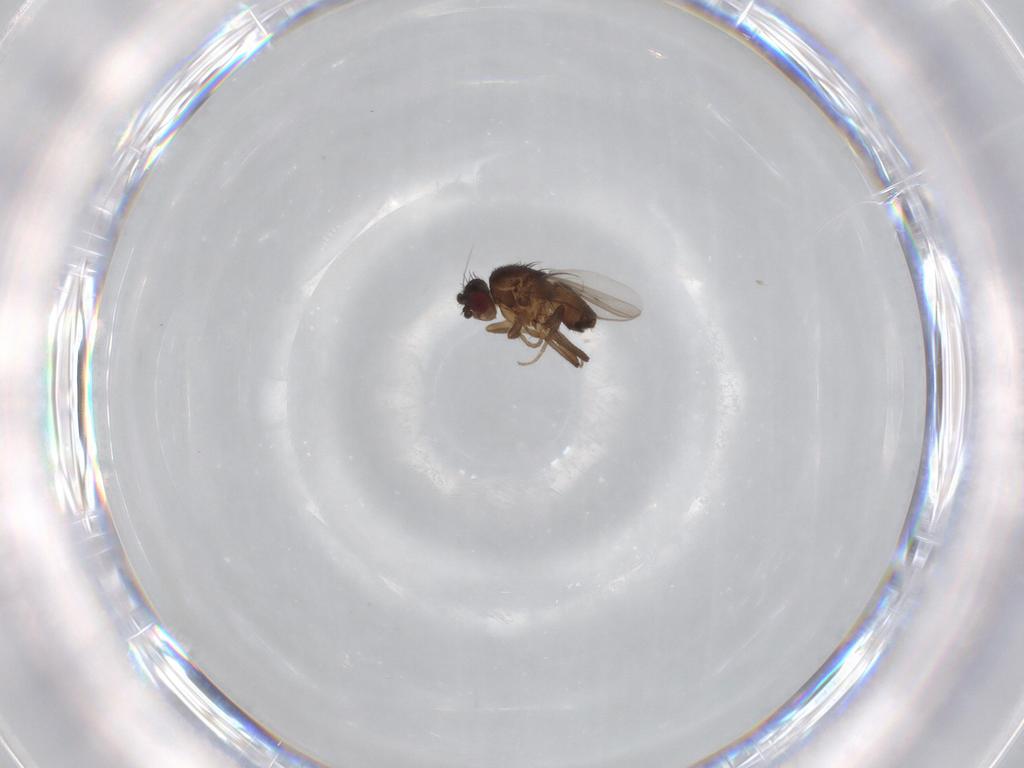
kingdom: Animalia
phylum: Arthropoda
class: Insecta
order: Diptera
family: Sphaeroceridae
